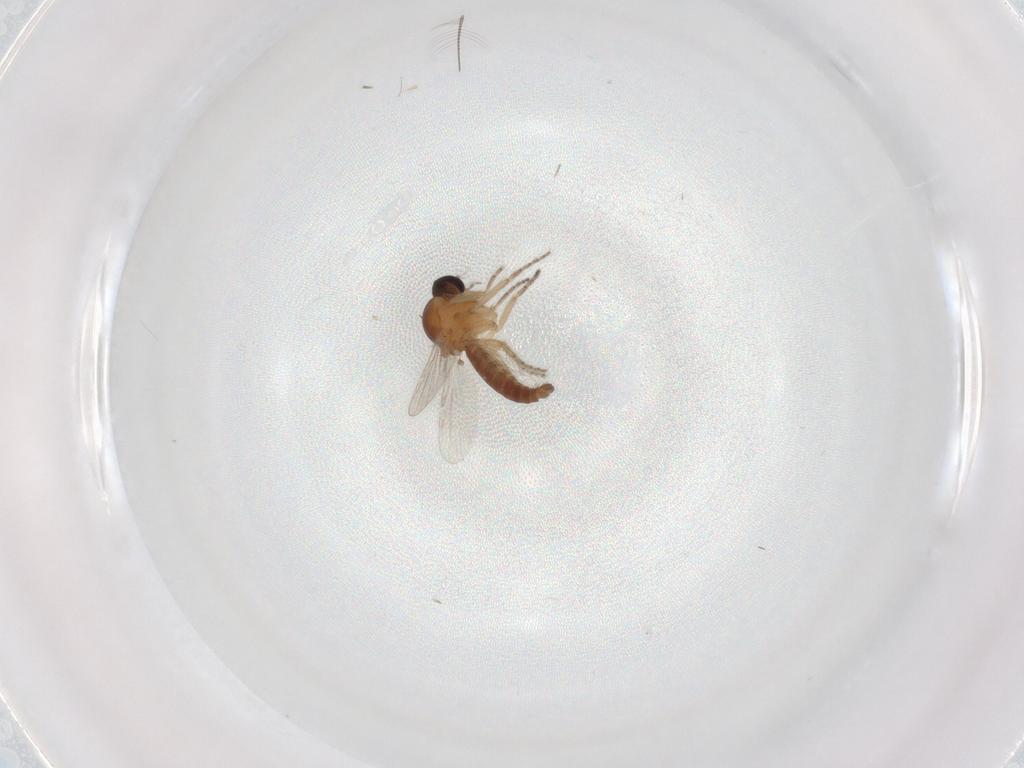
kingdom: Animalia
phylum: Arthropoda
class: Insecta
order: Diptera
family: Ceratopogonidae
